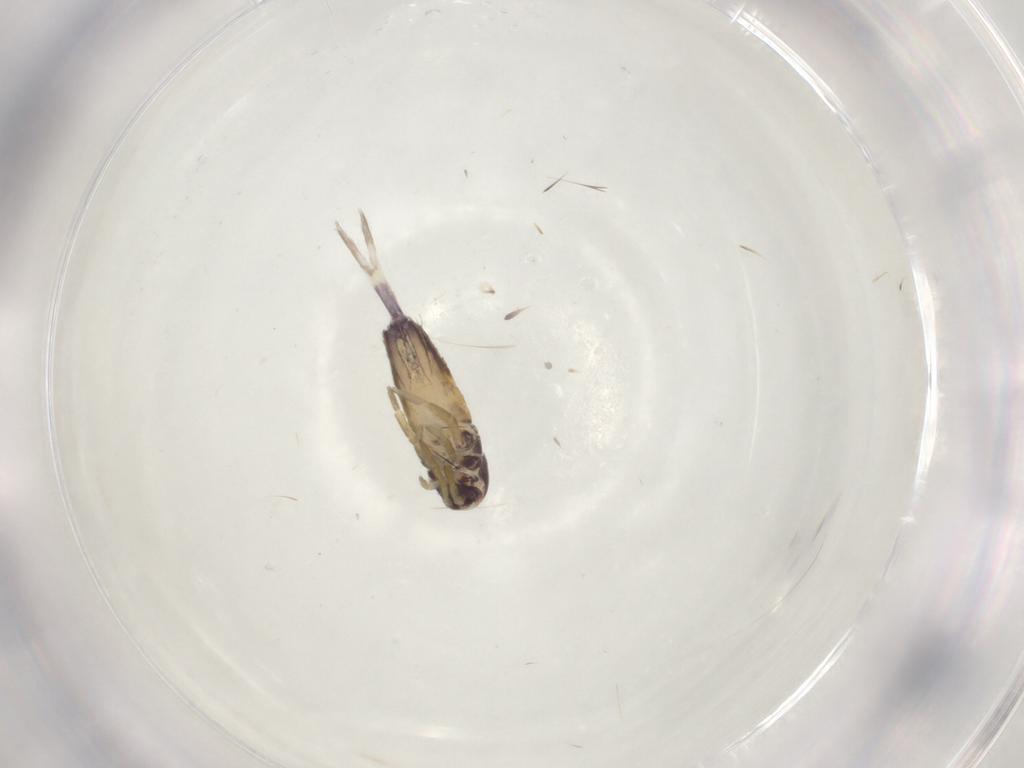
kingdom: Animalia
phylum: Arthropoda
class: Collembola
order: Entomobryomorpha
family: Entomobryidae
